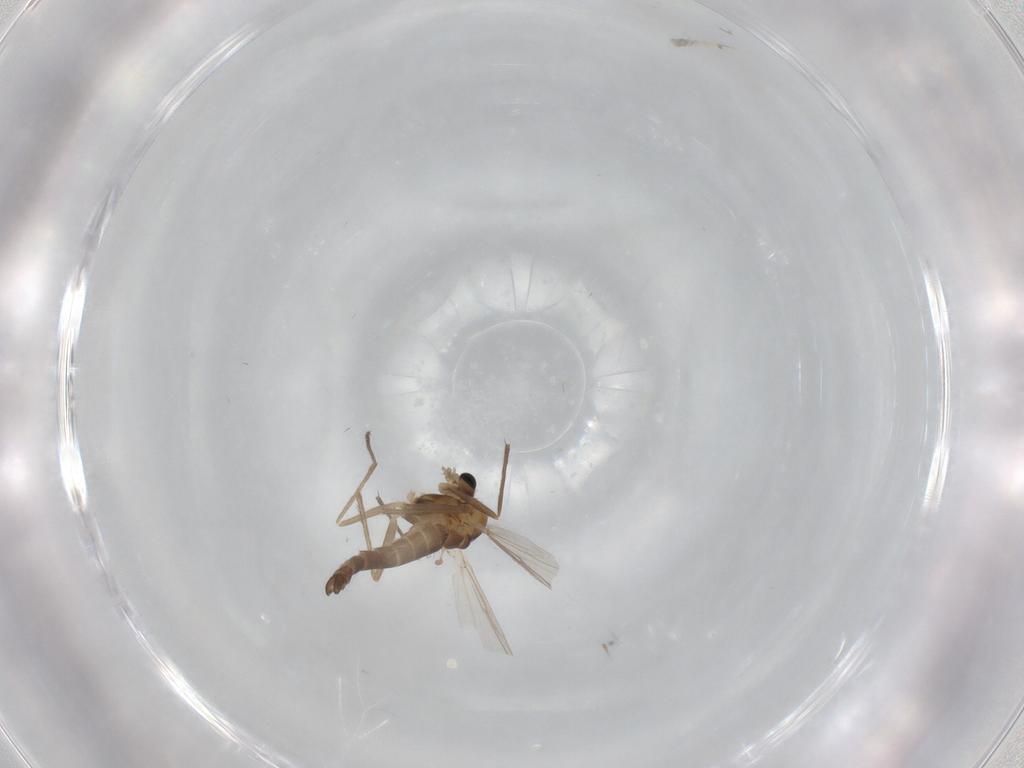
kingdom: Animalia
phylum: Arthropoda
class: Insecta
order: Diptera
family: Chironomidae
